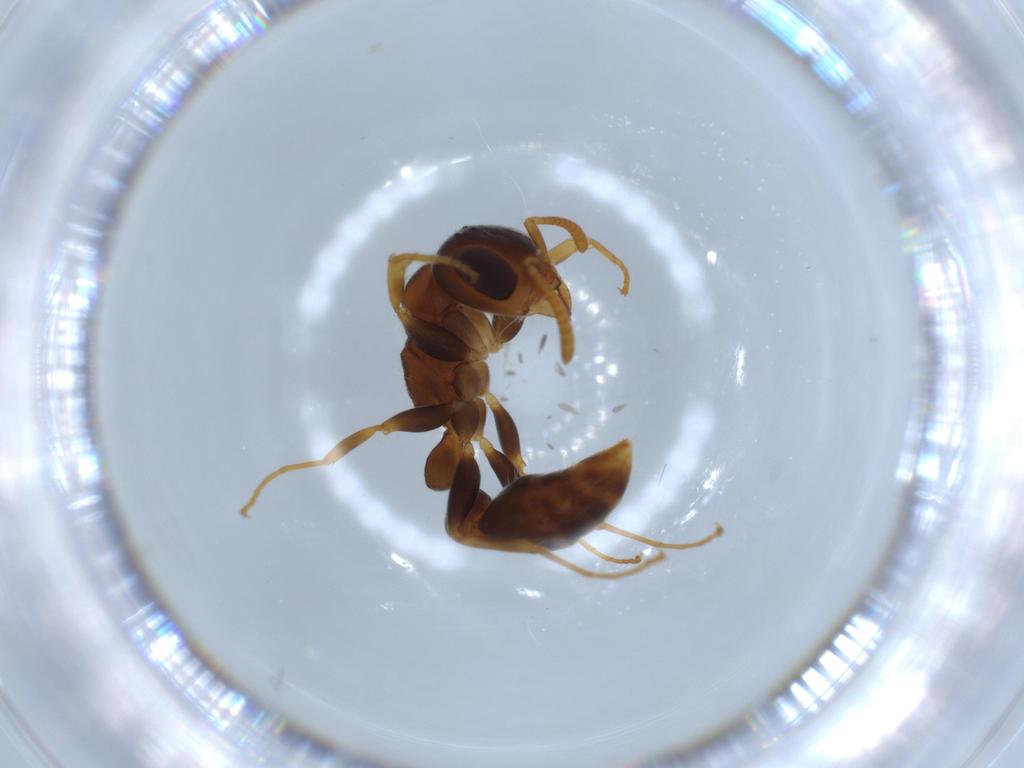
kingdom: Animalia
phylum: Arthropoda
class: Insecta
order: Hymenoptera
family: Formicidae
